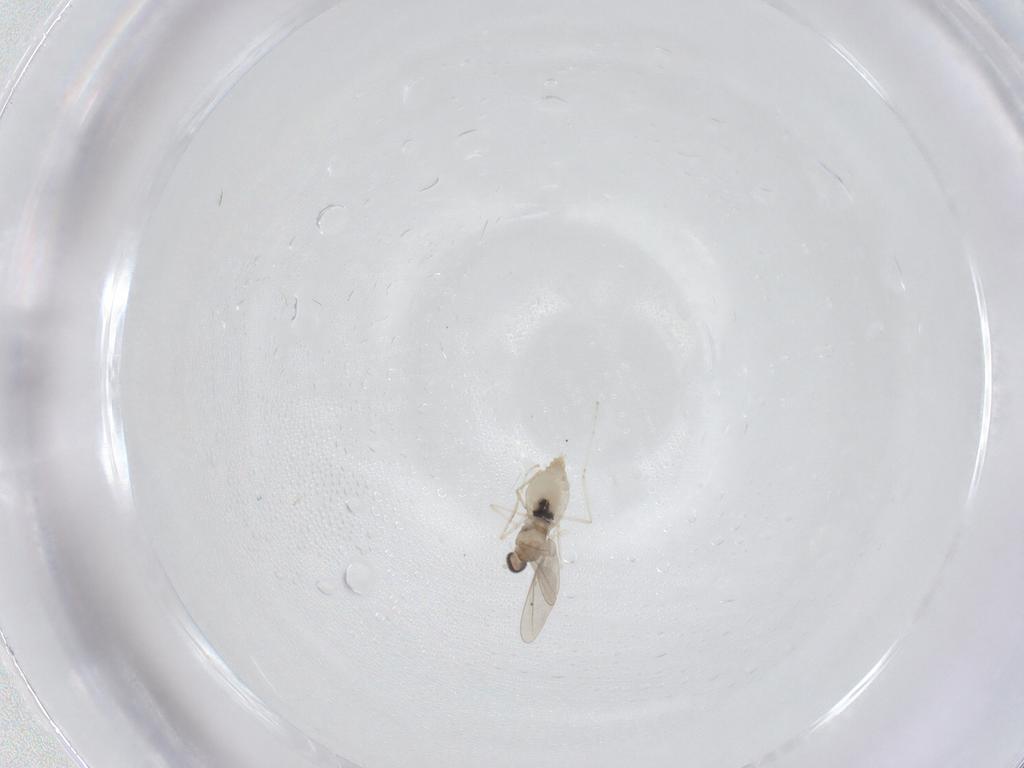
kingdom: Animalia
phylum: Arthropoda
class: Insecta
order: Diptera
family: Cecidomyiidae
